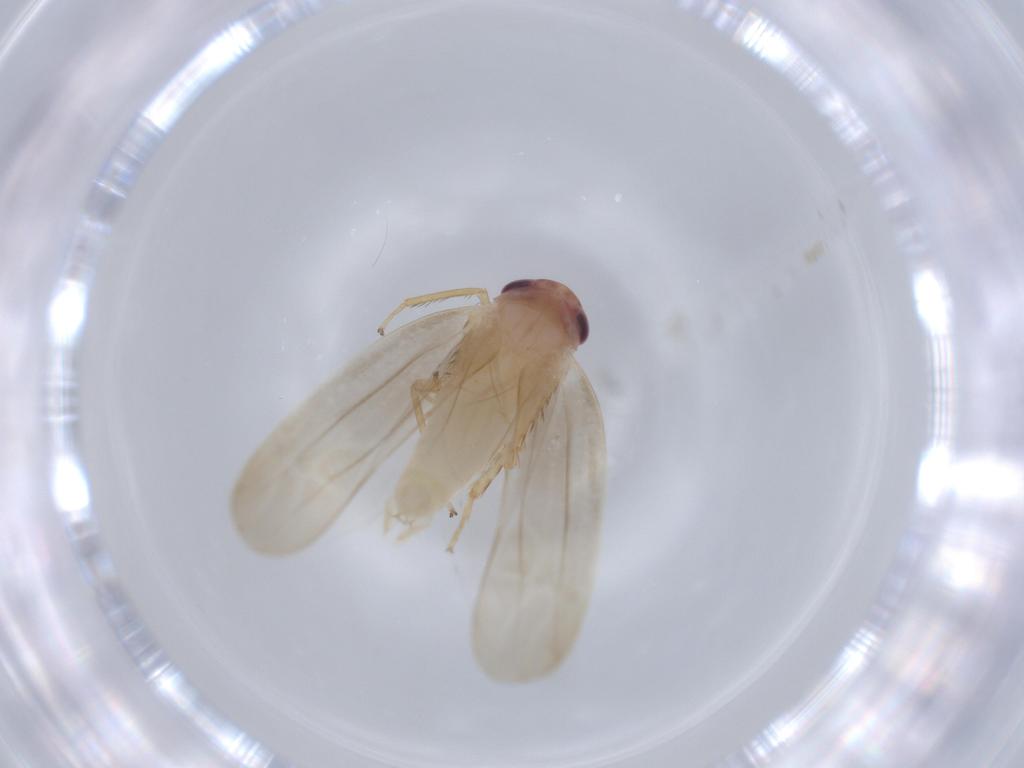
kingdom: Animalia
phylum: Arthropoda
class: Insecta
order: Hemiptera
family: Cicadellidae
